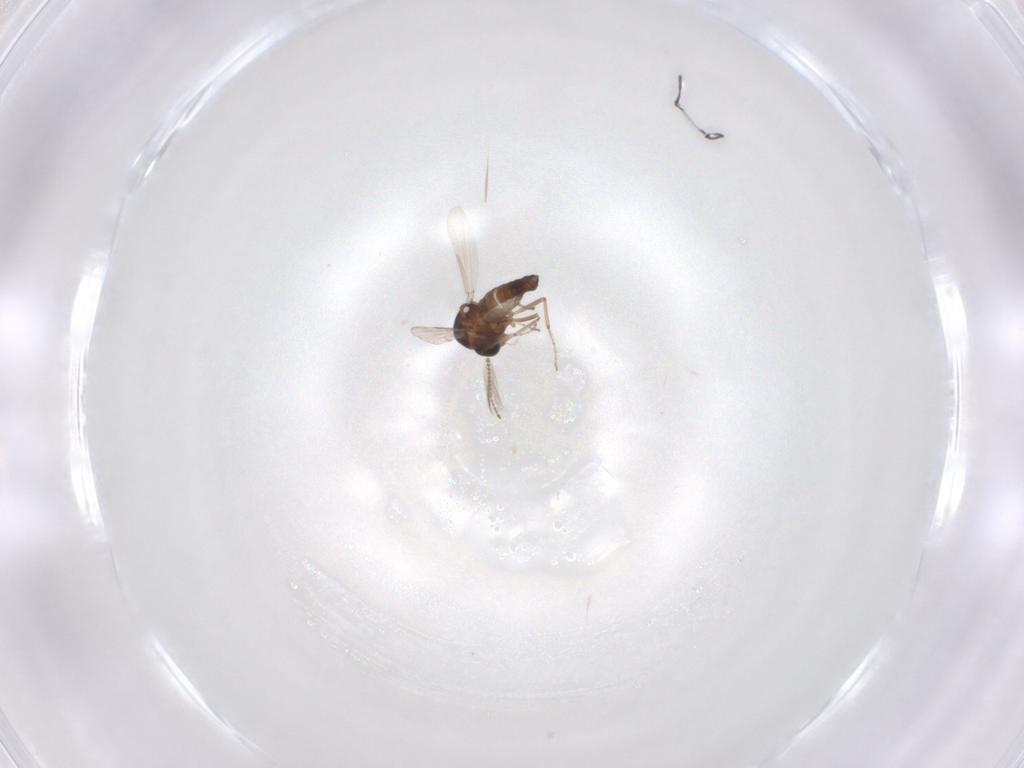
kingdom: Animalia
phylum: Arthropoda
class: Insecta
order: Diptera
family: Ceratopogonidae
